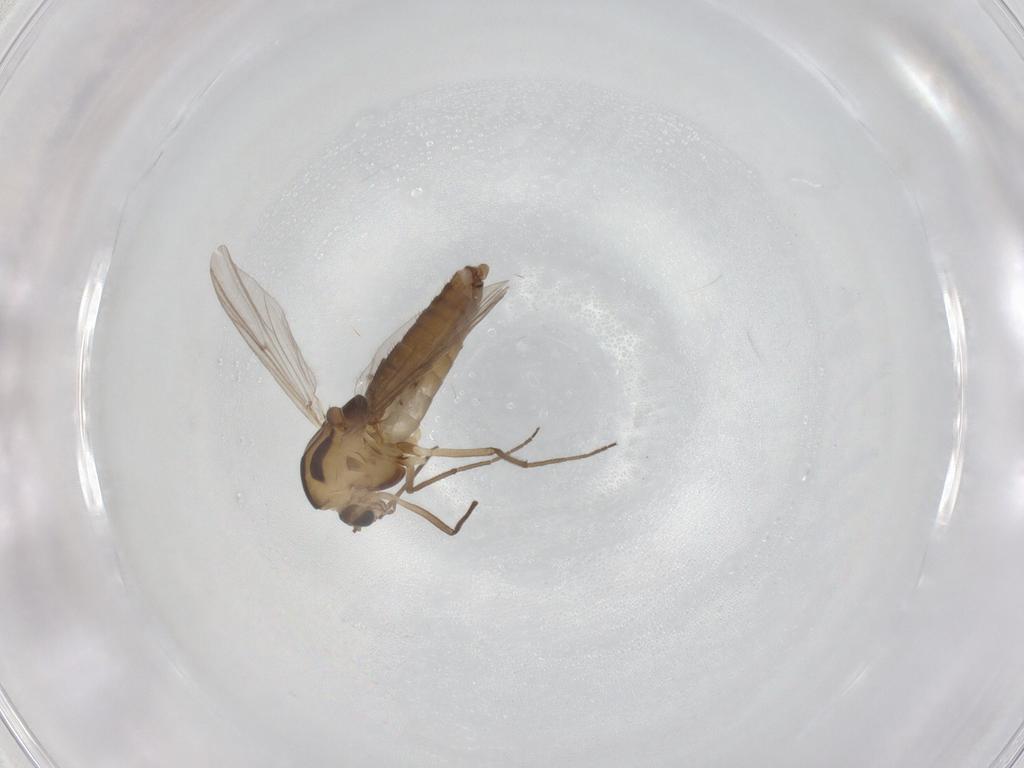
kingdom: Animalia
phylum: Arthropoda
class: Insecta
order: Diptera
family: Chironomidae
